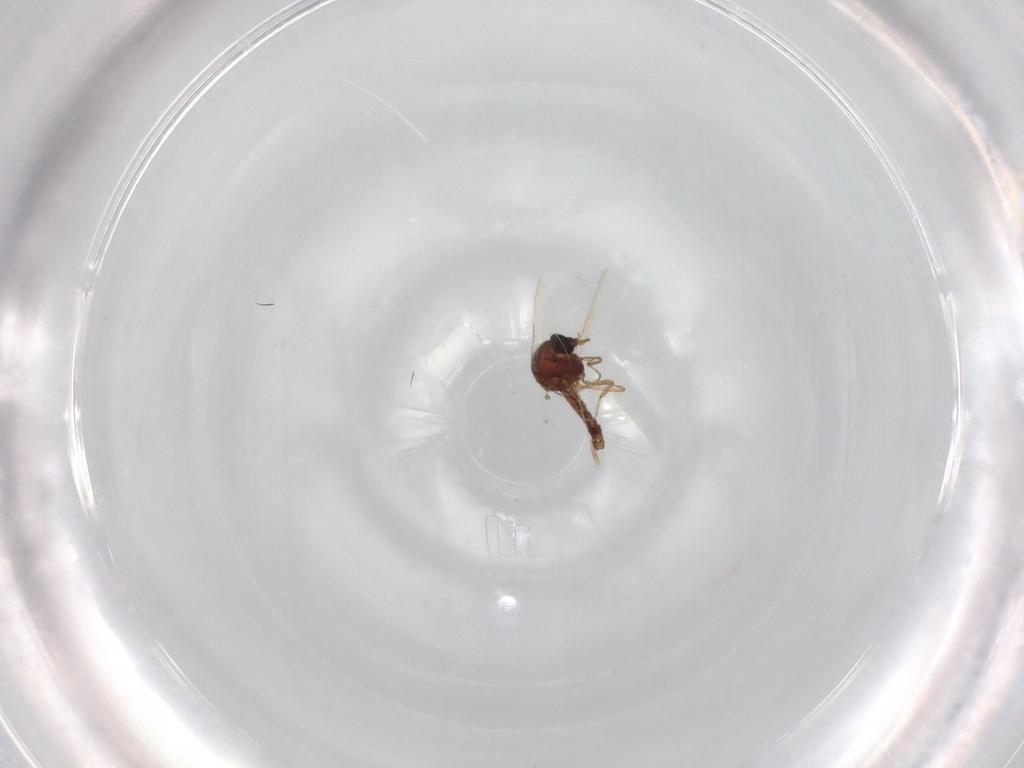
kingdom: Animalia
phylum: Arthropoda
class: Insecta
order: Diptera
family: Ceratopogonidae
